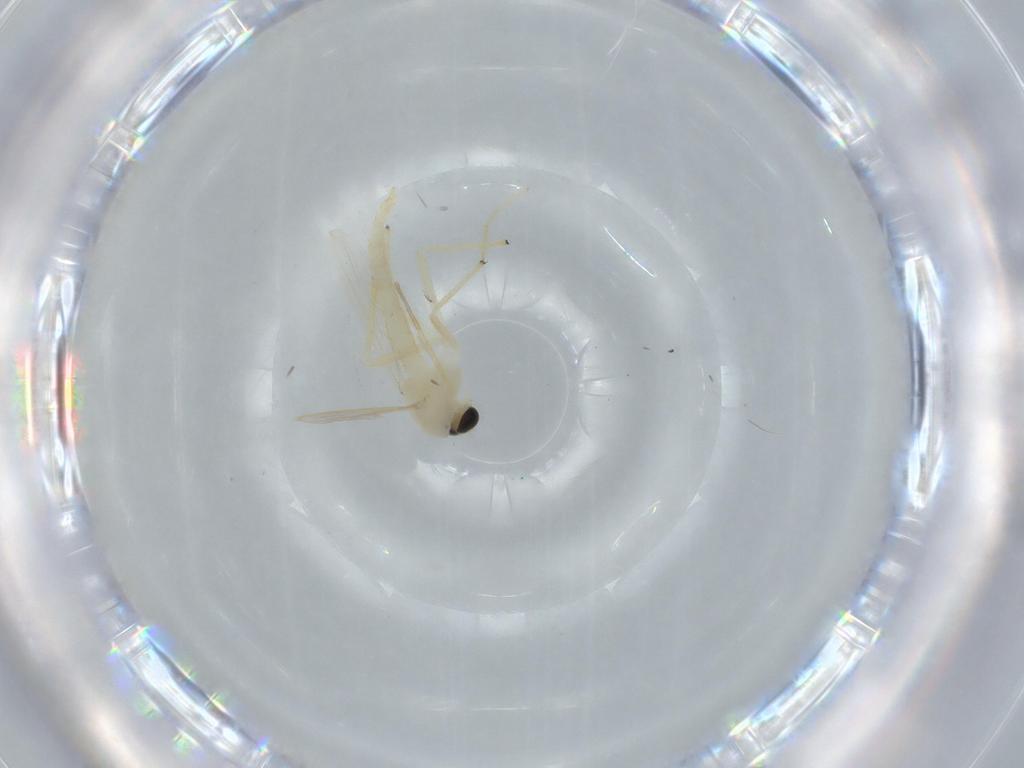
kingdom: Animalia
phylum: Arthropoda
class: Insecta
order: Diptera
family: Chironomidae
